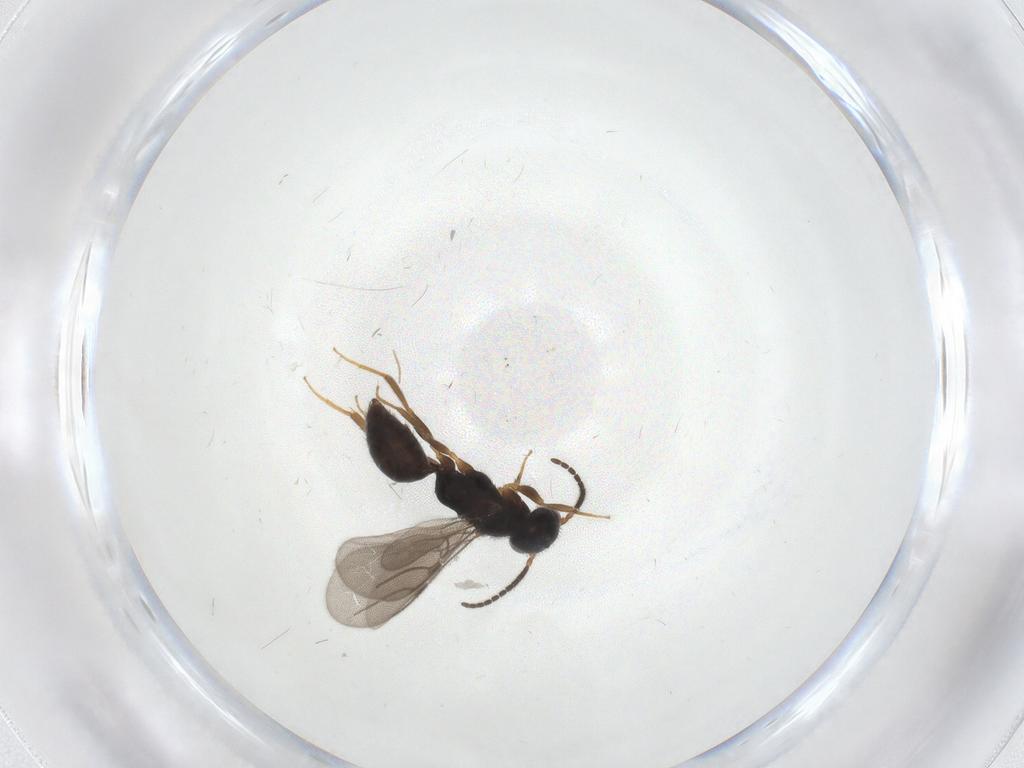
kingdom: Animalia
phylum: Arthropoda
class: Insecta
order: Hymenoptera
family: Bethylidae
